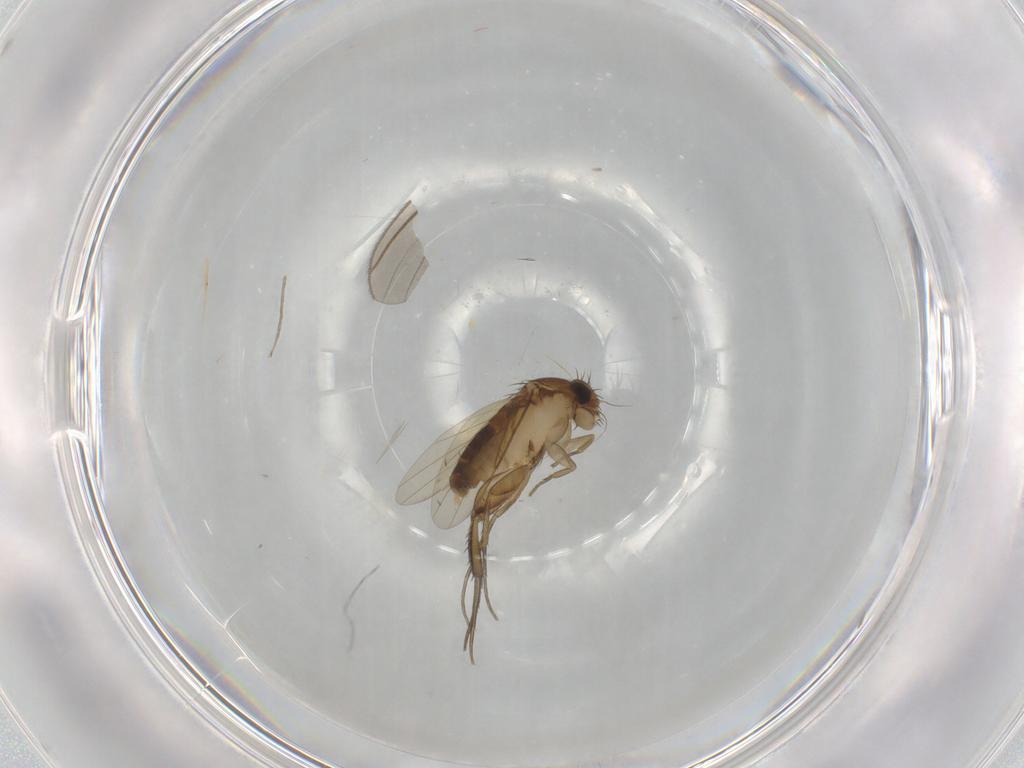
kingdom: Animalia
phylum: Arthropoda
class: Insecta
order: Diptera
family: Phoridae
